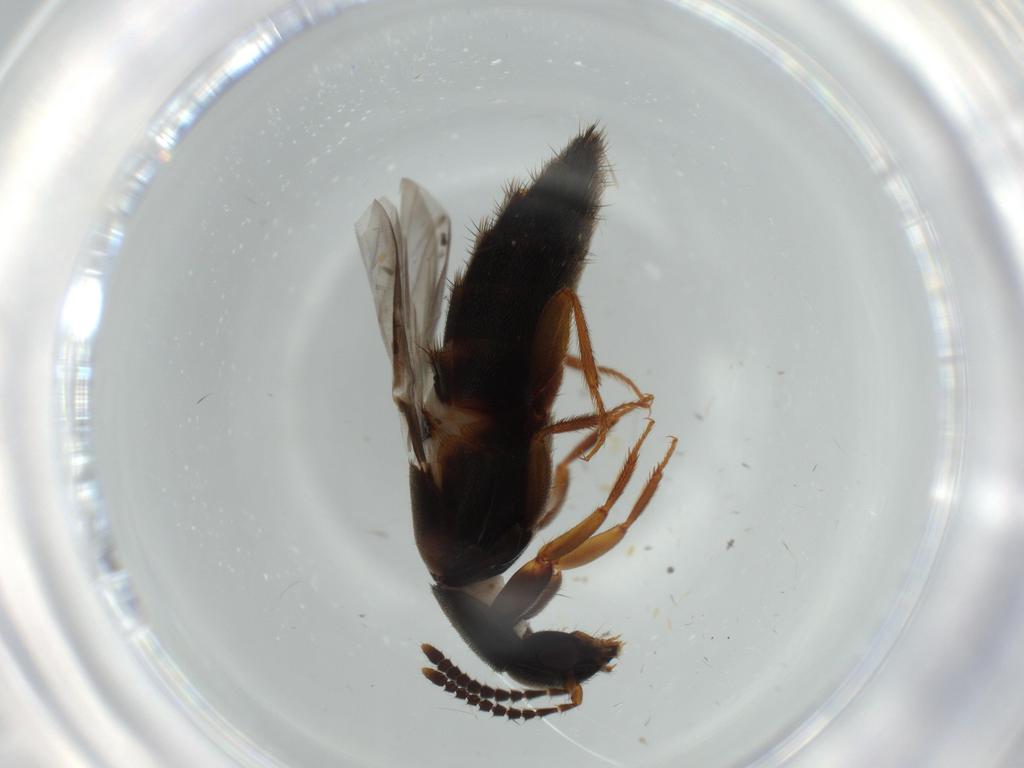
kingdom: Animalia
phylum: Arthropoda
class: Insecta
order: Coleoptera
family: Staphylinidae
